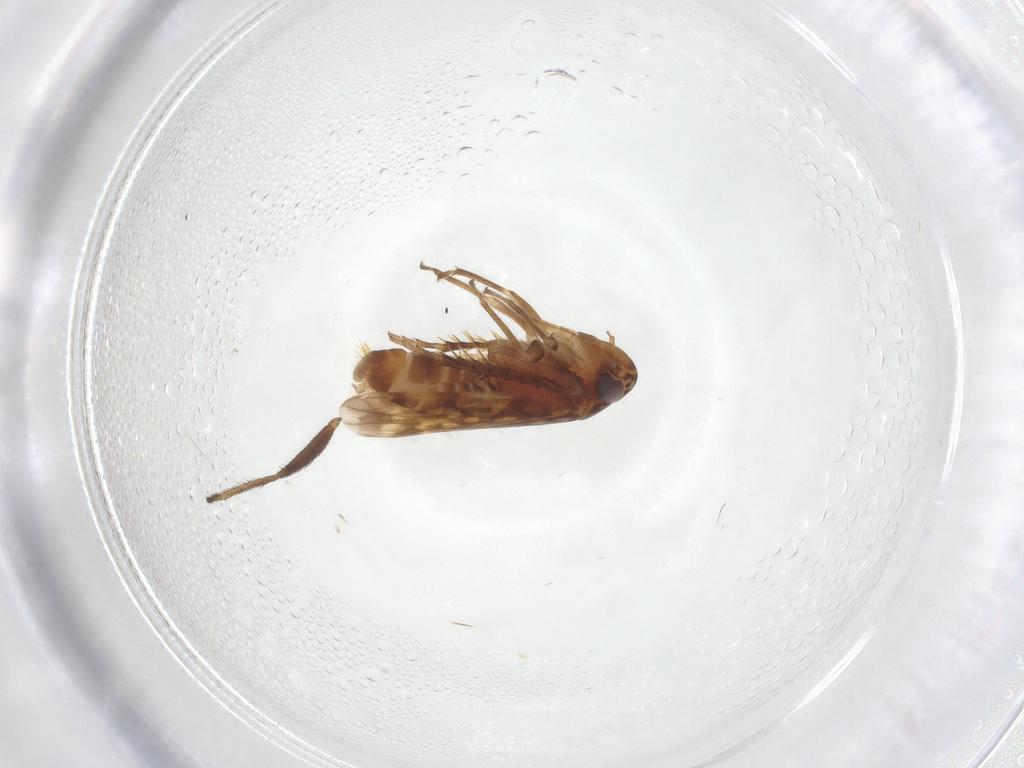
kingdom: Animalia
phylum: Arthropoda
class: Insecta
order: Hemiptera
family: Cicadellidae
